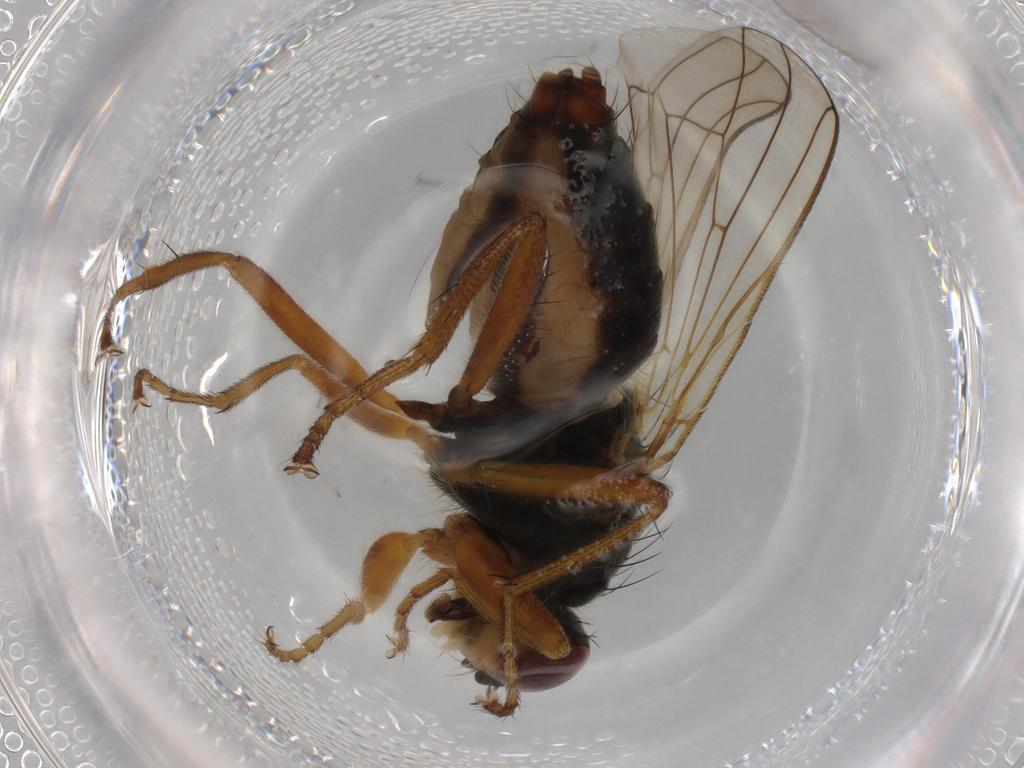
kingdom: Animalia
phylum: Arthropoda
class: Insecta
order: Diptera
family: Scathophagidae
